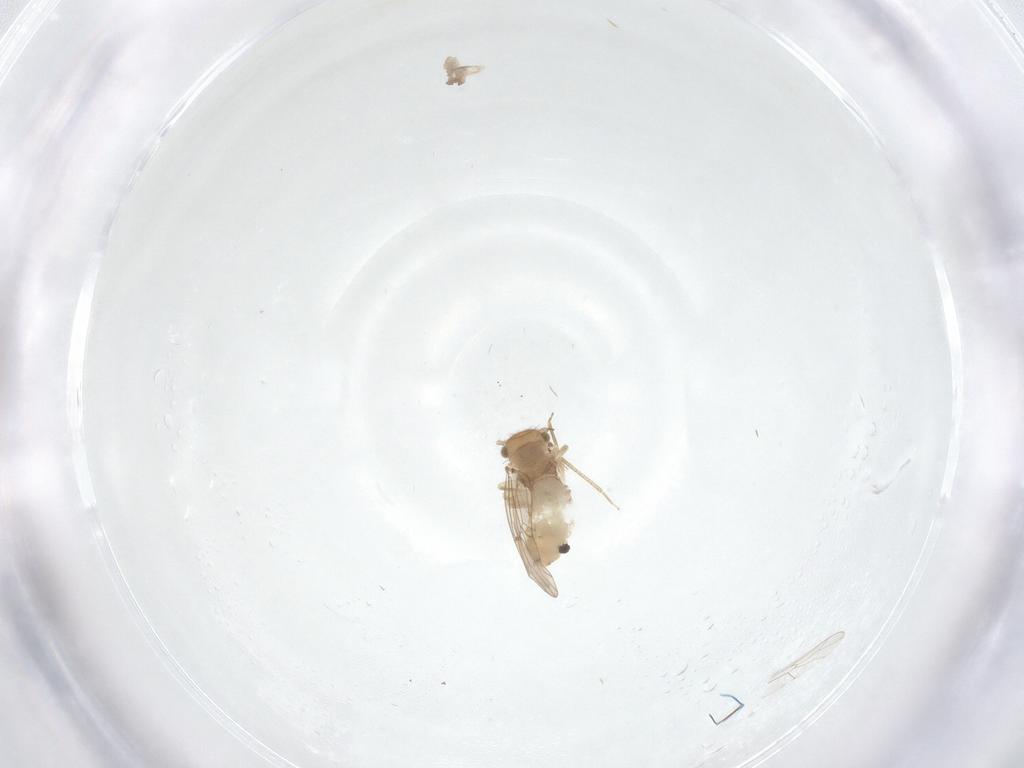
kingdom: Animalia
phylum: Arthropoda
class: Insecta
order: Psocodea
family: Ectopsocidae
